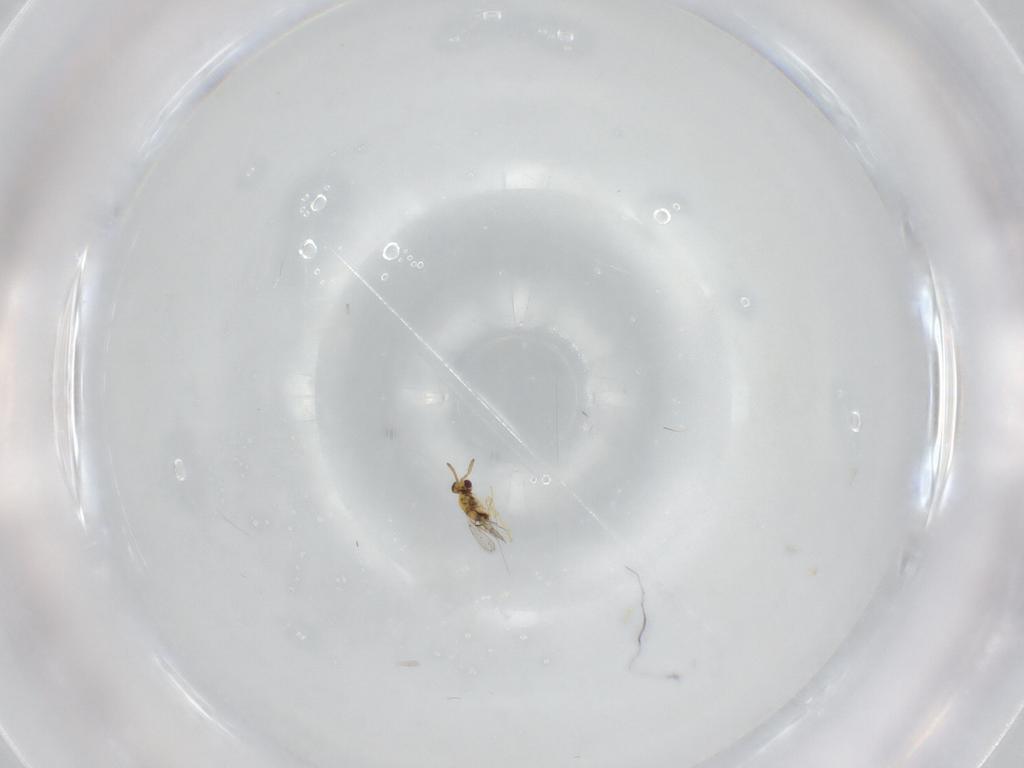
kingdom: Animalia
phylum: Arthropoda
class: Insecta
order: Hymenoptera
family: Aphelinidae
